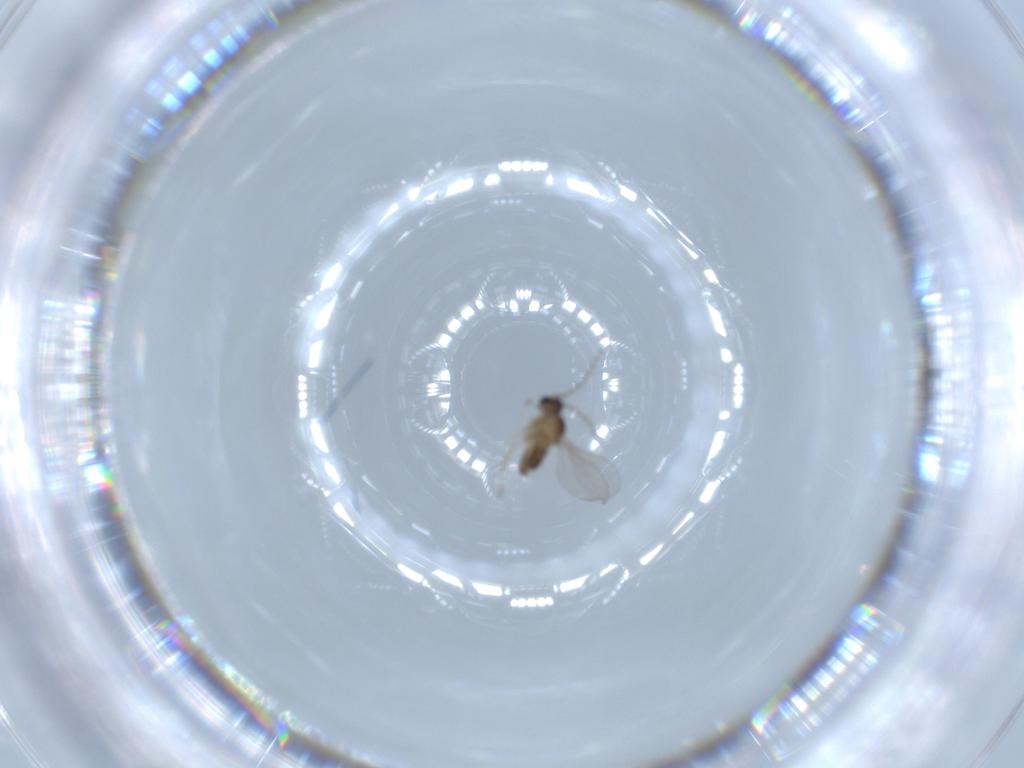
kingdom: Animalia
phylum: Arthropoda
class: Insecta
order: Diptera
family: Cecidomyiidae
